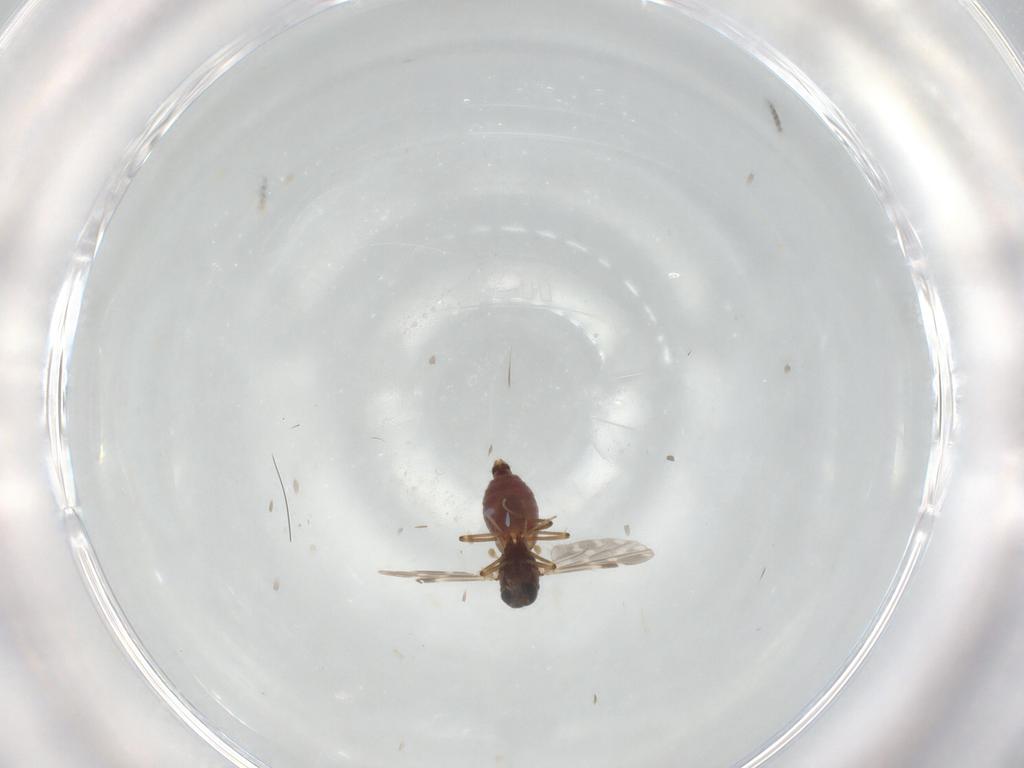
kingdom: Animalia
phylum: Arthropoda
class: Insecta
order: Diptera
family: Ceratopogonidae
